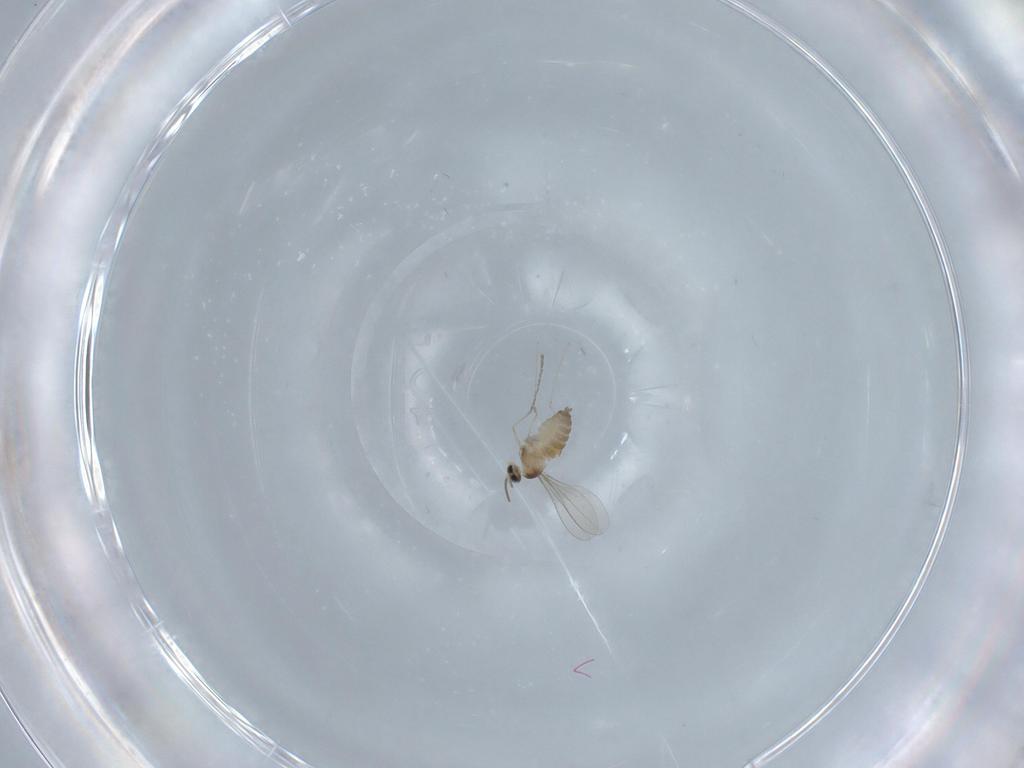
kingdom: Animalia
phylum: Arthropoda
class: Insecta
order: Diptera
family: Cecidomyiidae
